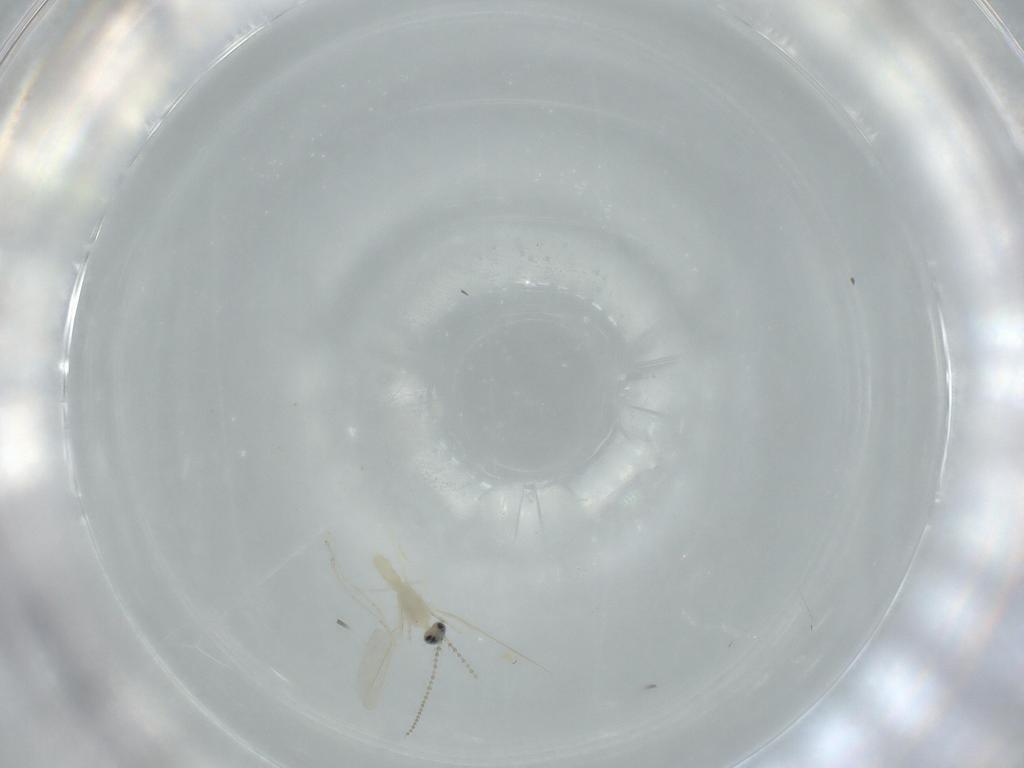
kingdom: Animalia
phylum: Arthropoda
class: Insecta
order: Diptera
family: Cecidomyiidae
